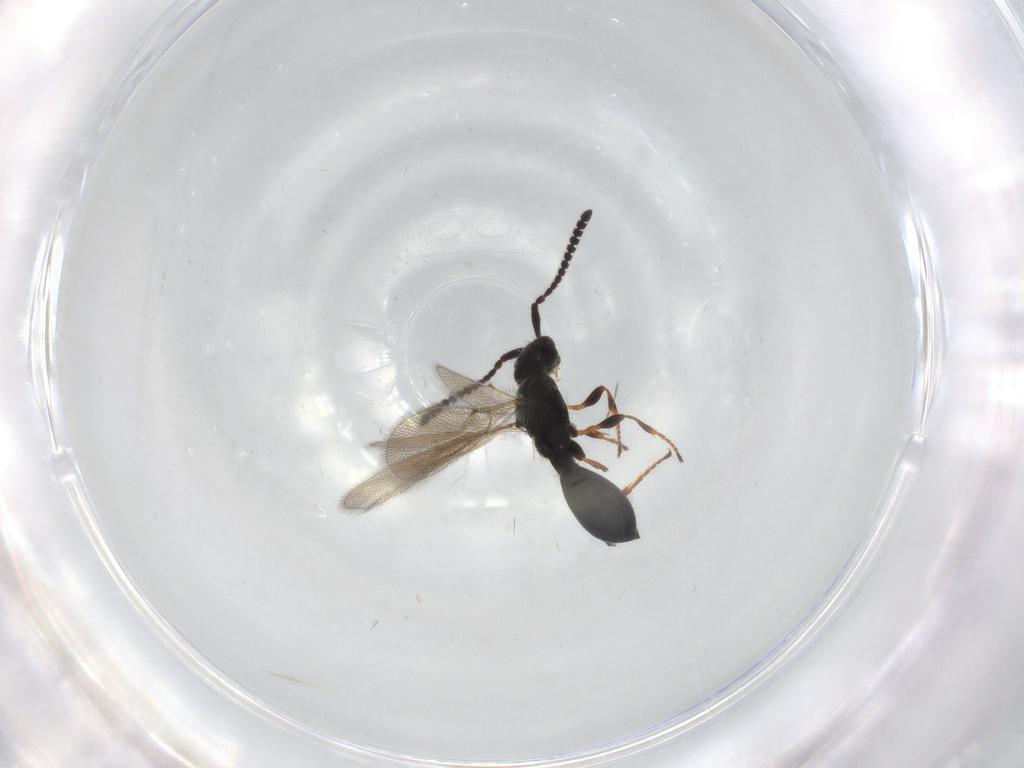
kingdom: Animalia
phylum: Arthropoda
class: Insecta
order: Hymenoptera
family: Diapriidae
